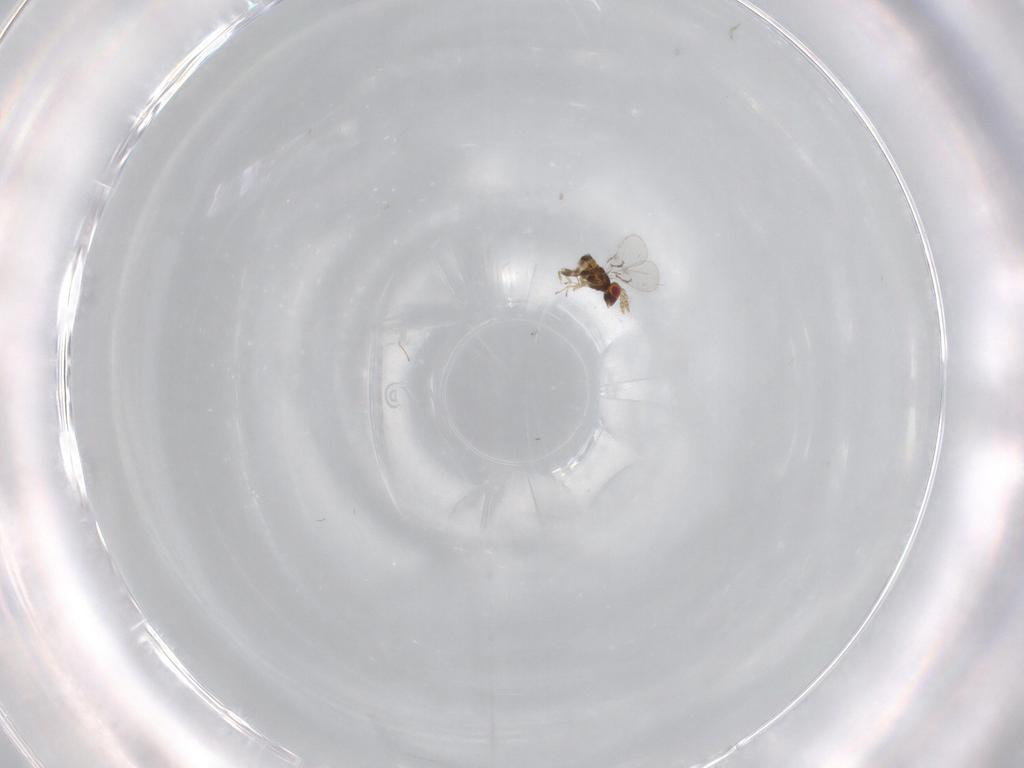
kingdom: Animalia
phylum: Arthropoda
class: Insecta
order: Hymenoptera
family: Trichogrammatidae
